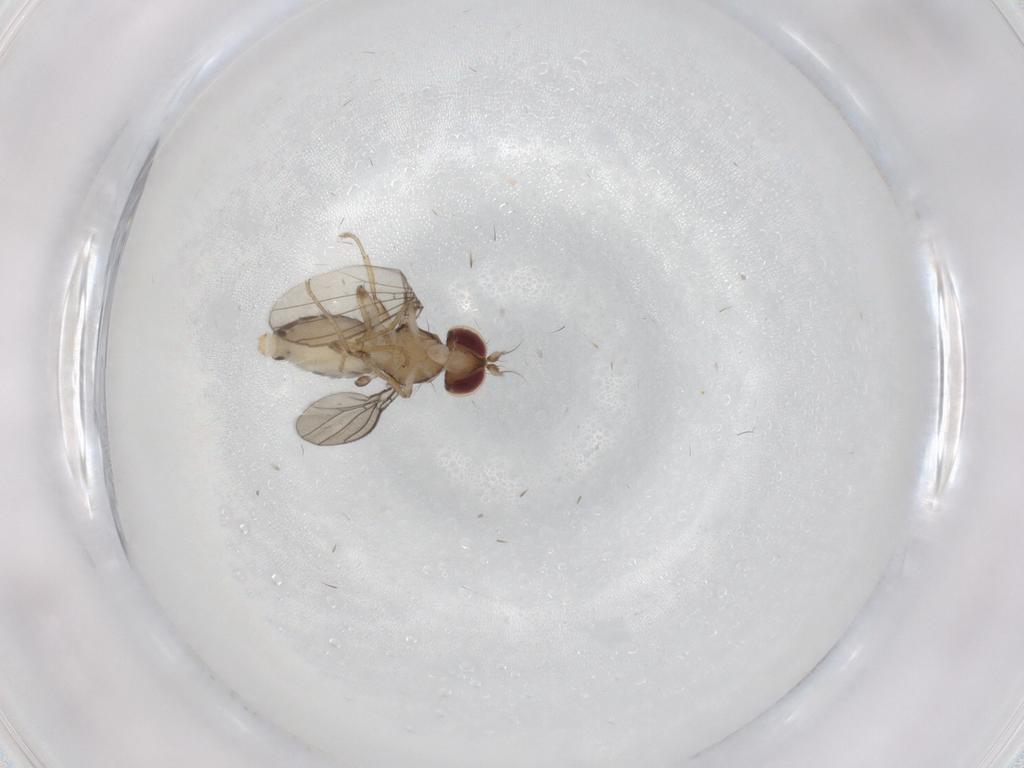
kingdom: Animalia
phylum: Arthropoda
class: Insecta
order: Diptera
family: Anthomyzidae
